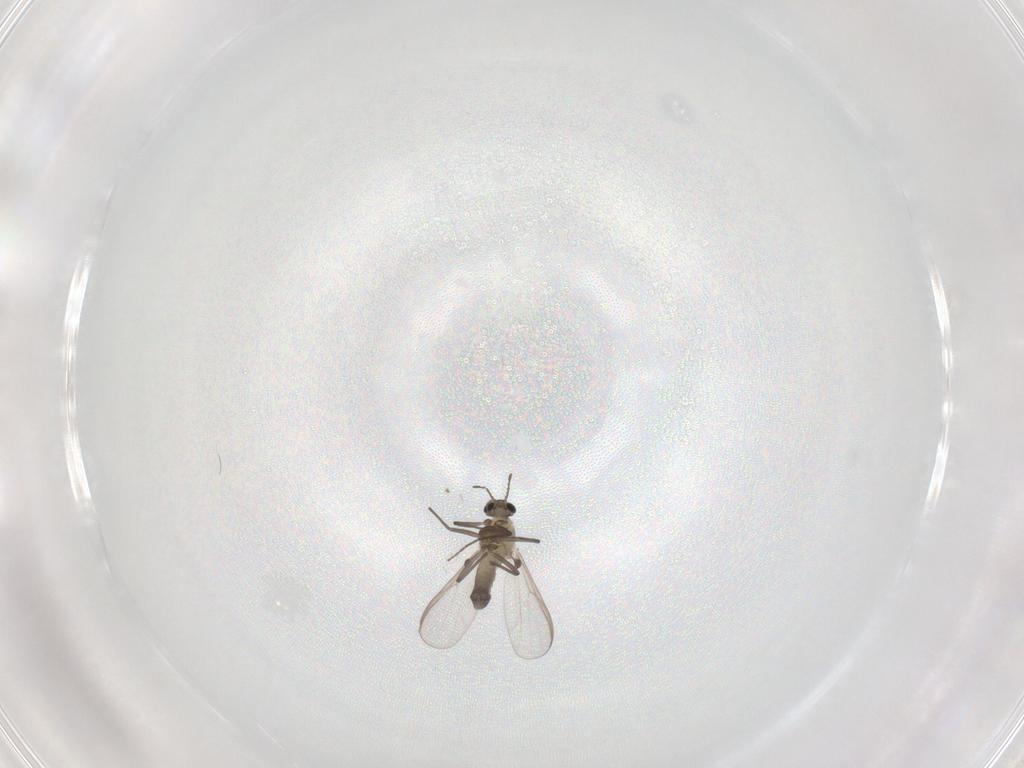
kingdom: Animalia
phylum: Arthropoda
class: Insecta
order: Diptera
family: Chironomidae
